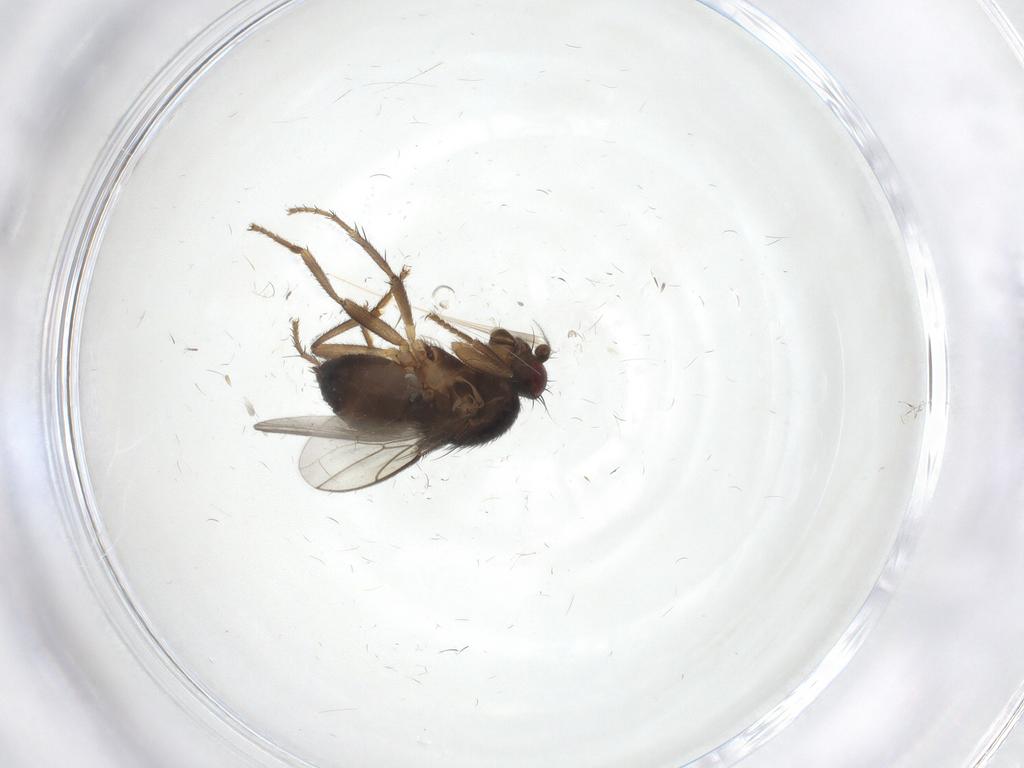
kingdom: Animalia
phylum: Arthropoda
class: Insecta
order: Diptera
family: Sphaeroceridae
